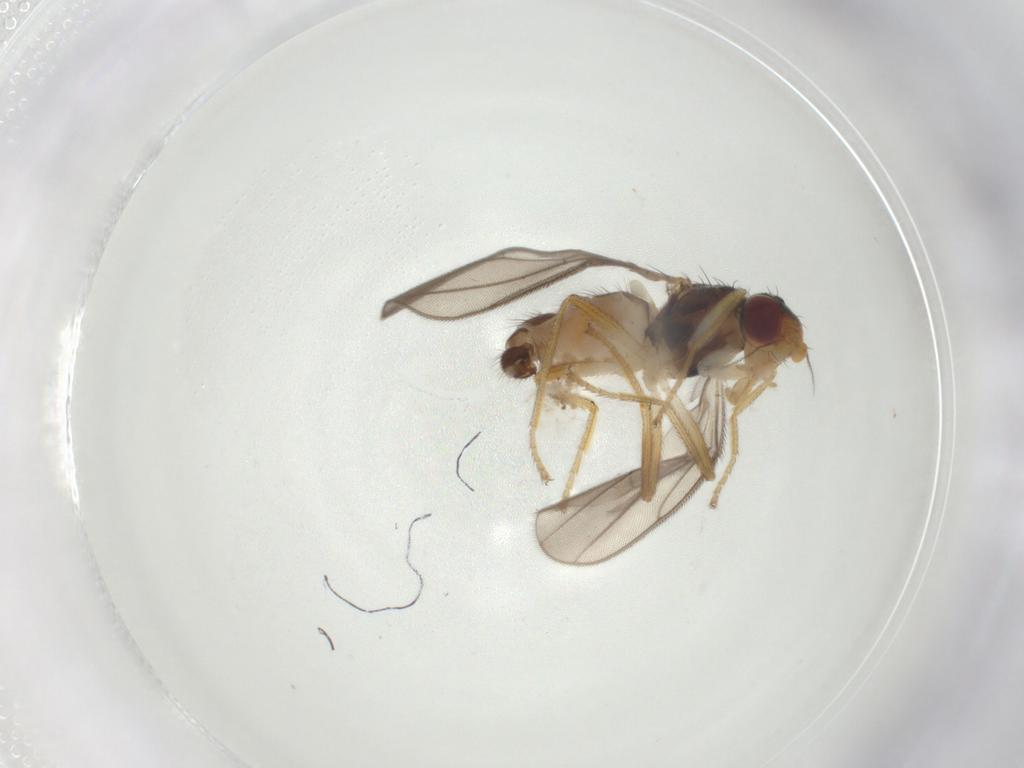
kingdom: Animalia
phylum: Arthropoda
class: Insecta
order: Diptera
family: Chloropidae
